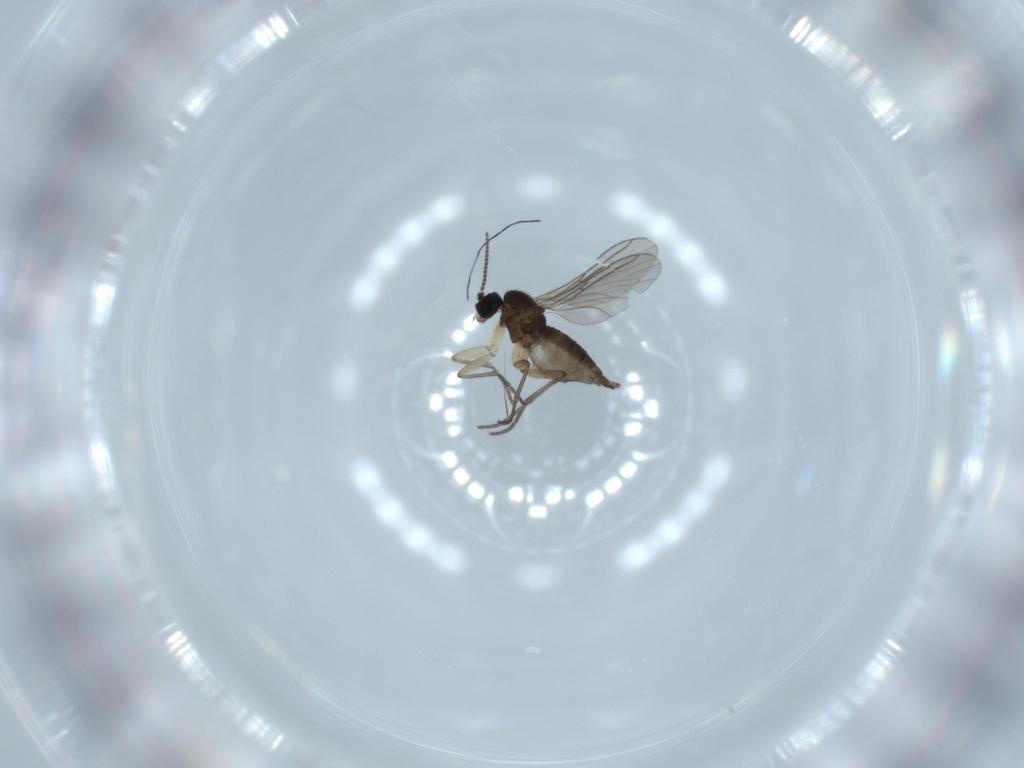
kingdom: Animalia
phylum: Arthropoda
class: Insecta
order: Diptera
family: Sciaridae
